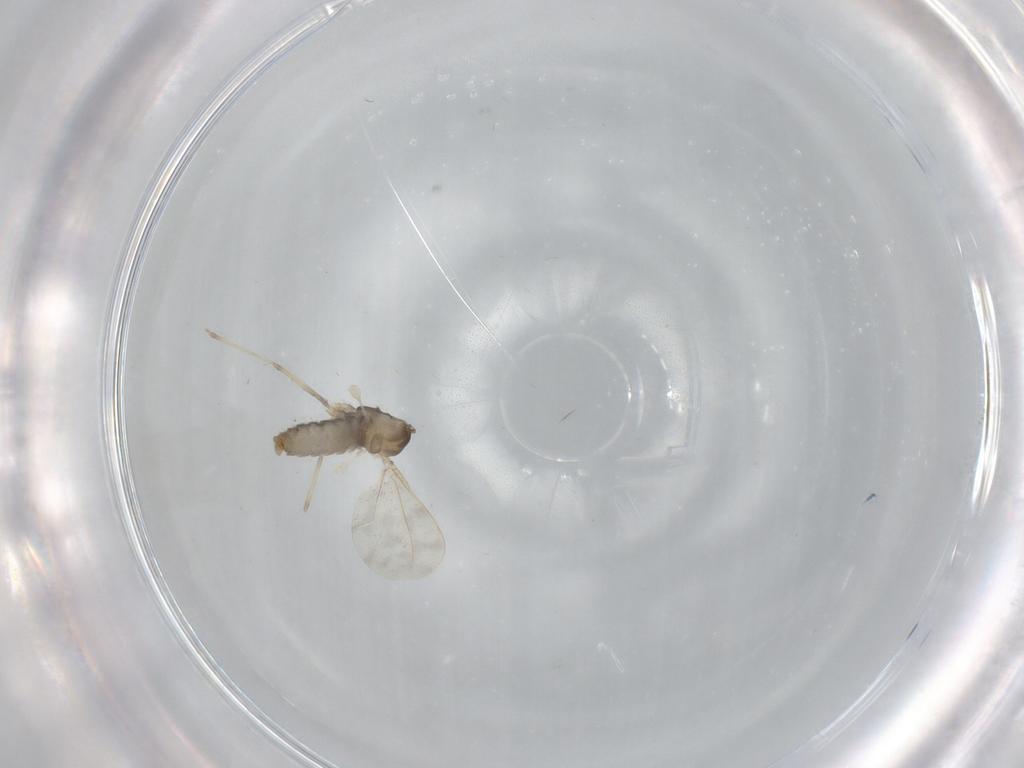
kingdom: Animalia
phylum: Arthropoda
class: Insecta
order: Diptera
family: Cecidomyiidae
